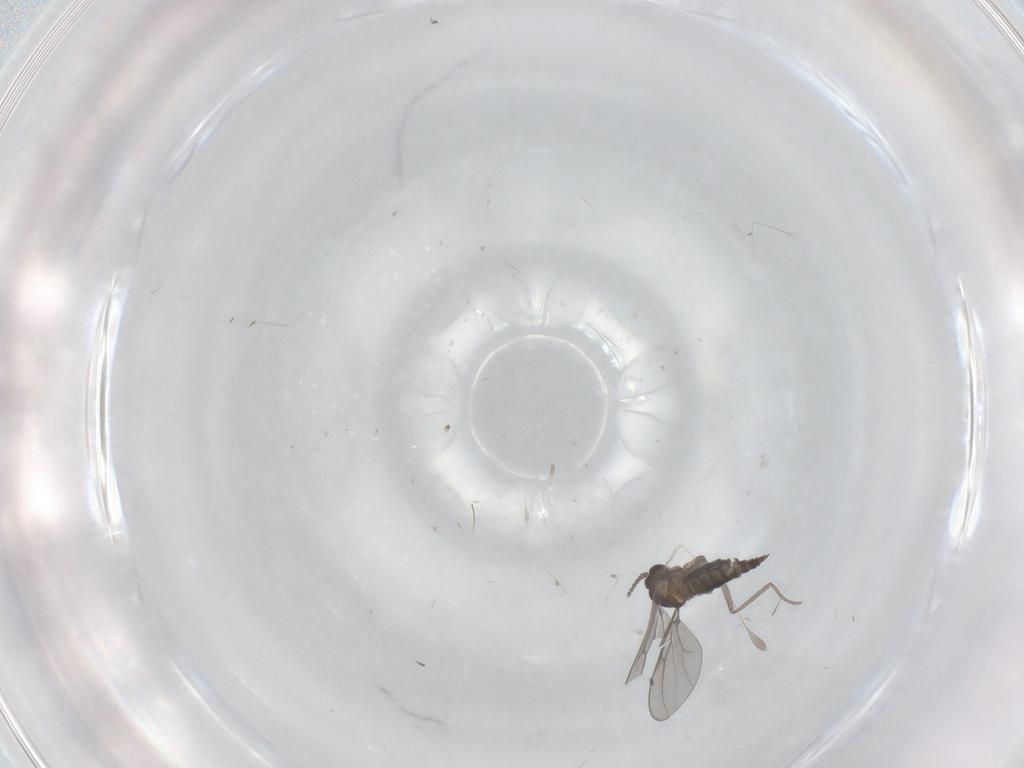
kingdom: Animalia
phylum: Arthropoda
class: Insecta
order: Diptera
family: Cecidomyiidae
